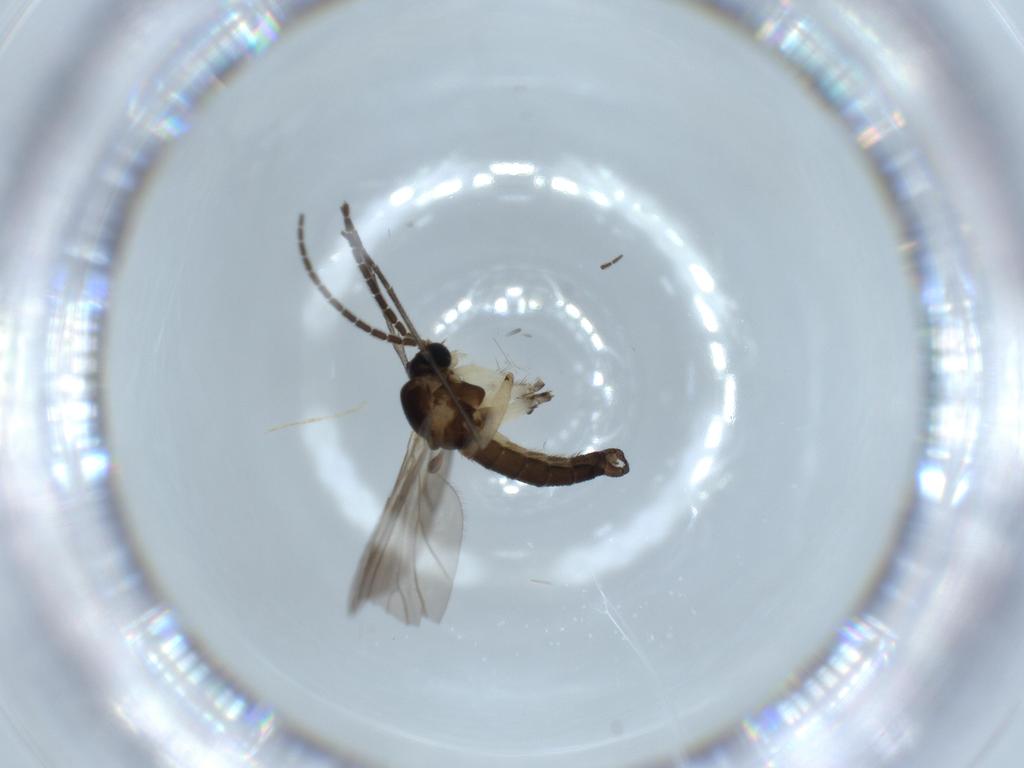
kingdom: Animalia
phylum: Arthropoda
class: Insecta
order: Diptera
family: Sciaridae
